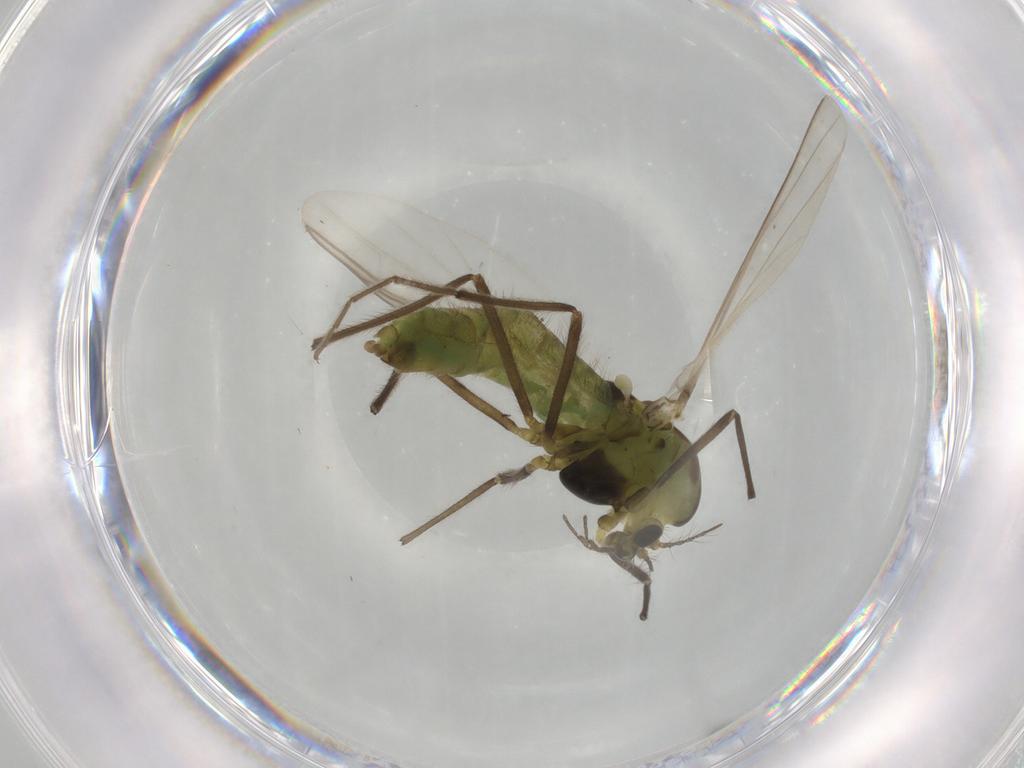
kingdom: Animalia
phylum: Arthropoda
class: Insecta
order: Diptera
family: Chironomidae
